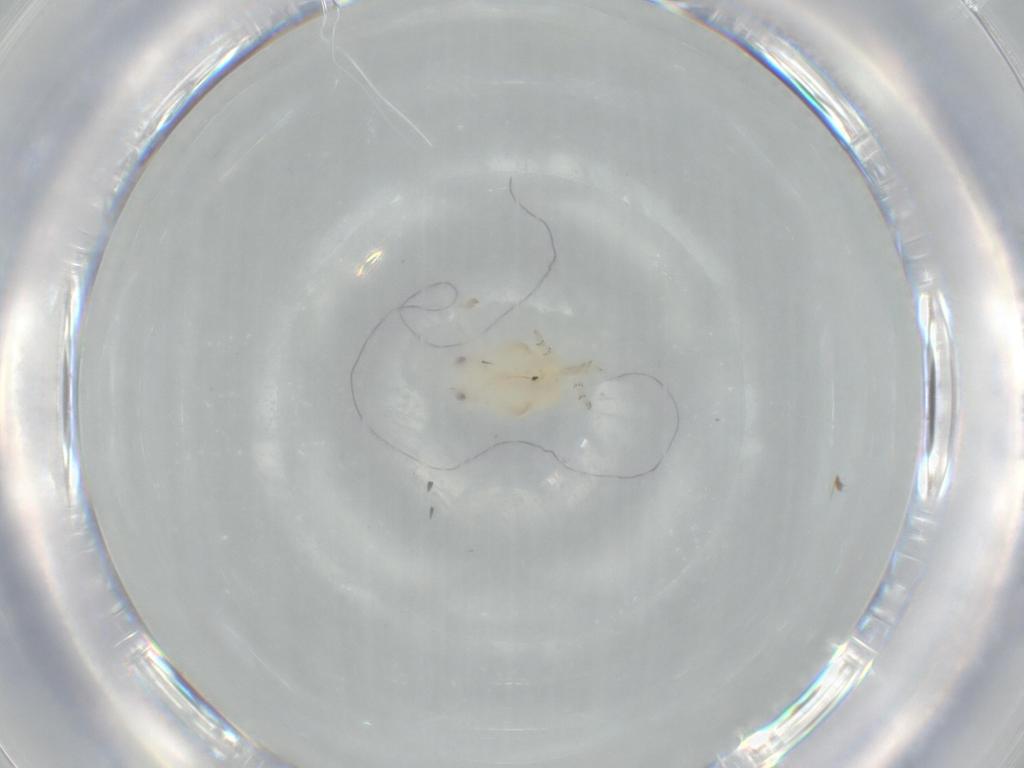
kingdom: Animalia
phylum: Arthropoda
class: Insecta
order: Hemiptera
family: Flatidae
